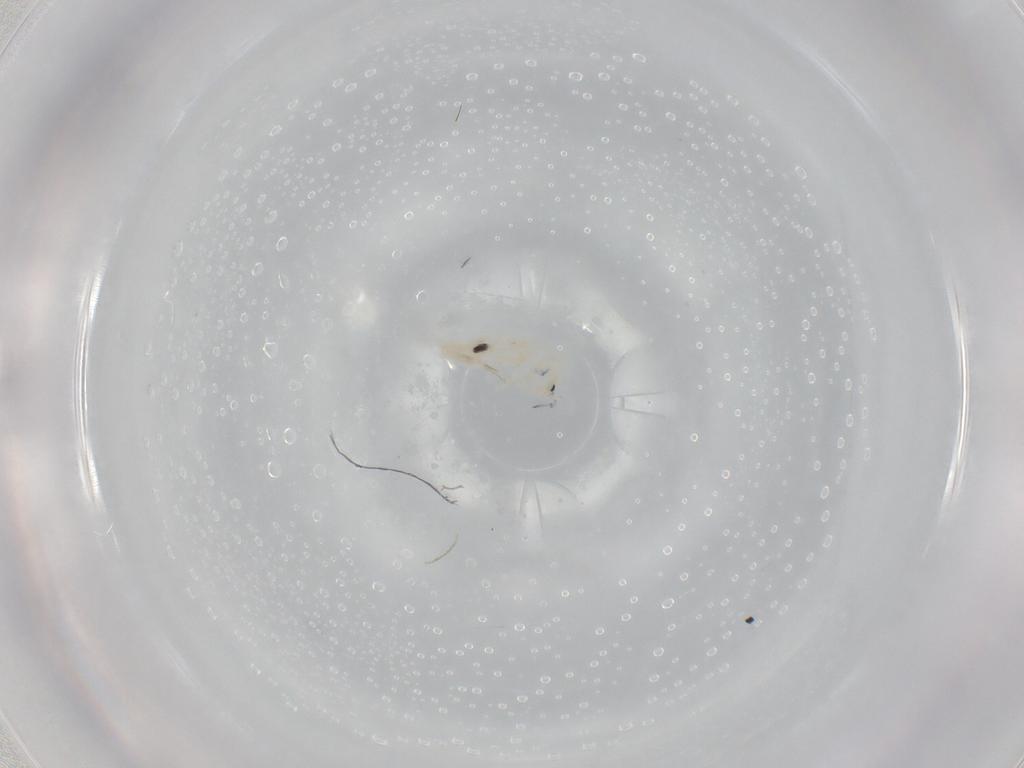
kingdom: Animalia
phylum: Arthropoda
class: Collembola
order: Entomobryomorpha
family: Entomobryidae
